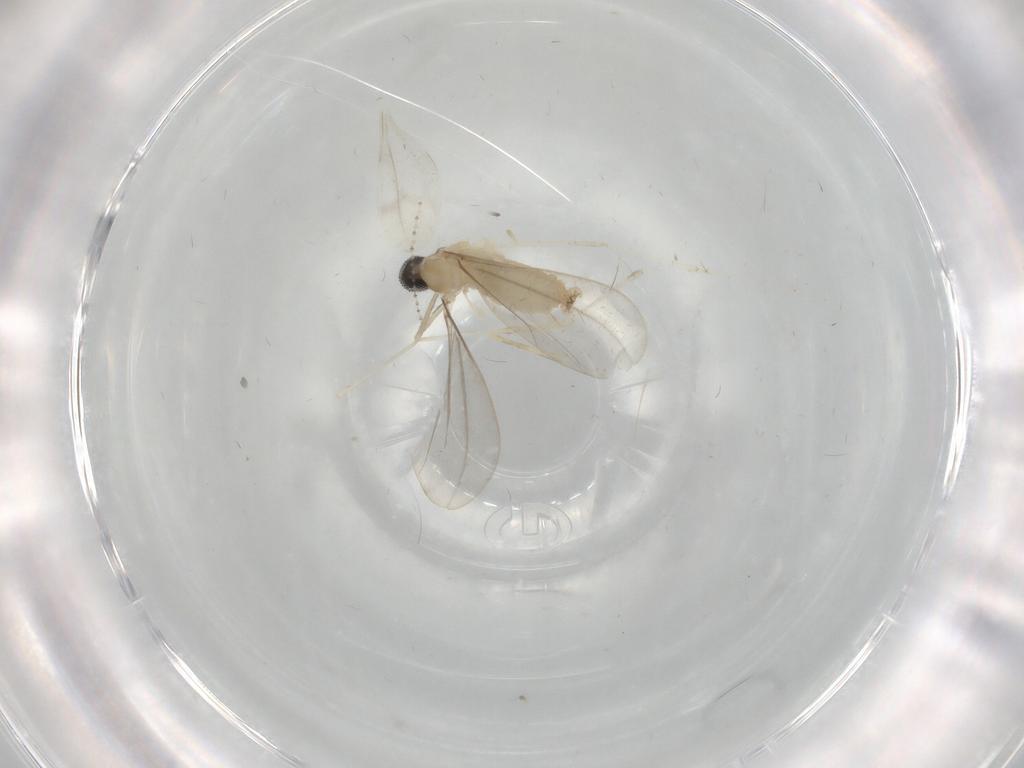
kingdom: Animalia
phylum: Arthropoda
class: Insecta
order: Diptera
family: Cecidomyiidae
